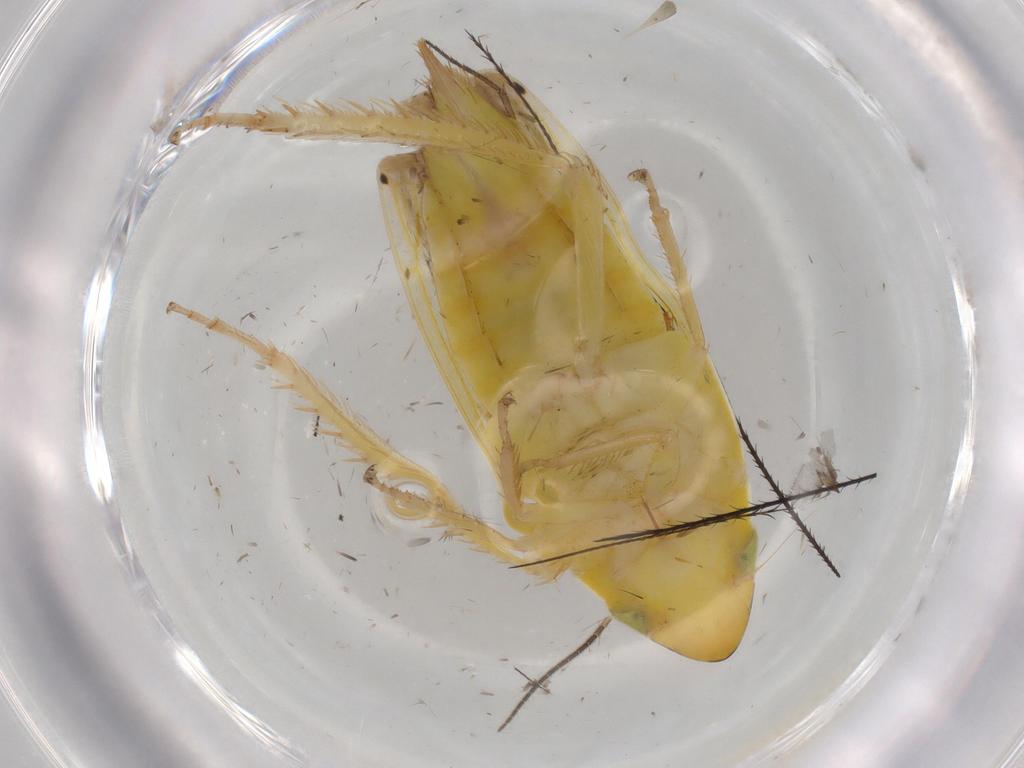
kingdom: Animalia
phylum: Arthropoda
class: Insecta
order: Hemiptera
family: Cicadellidae
